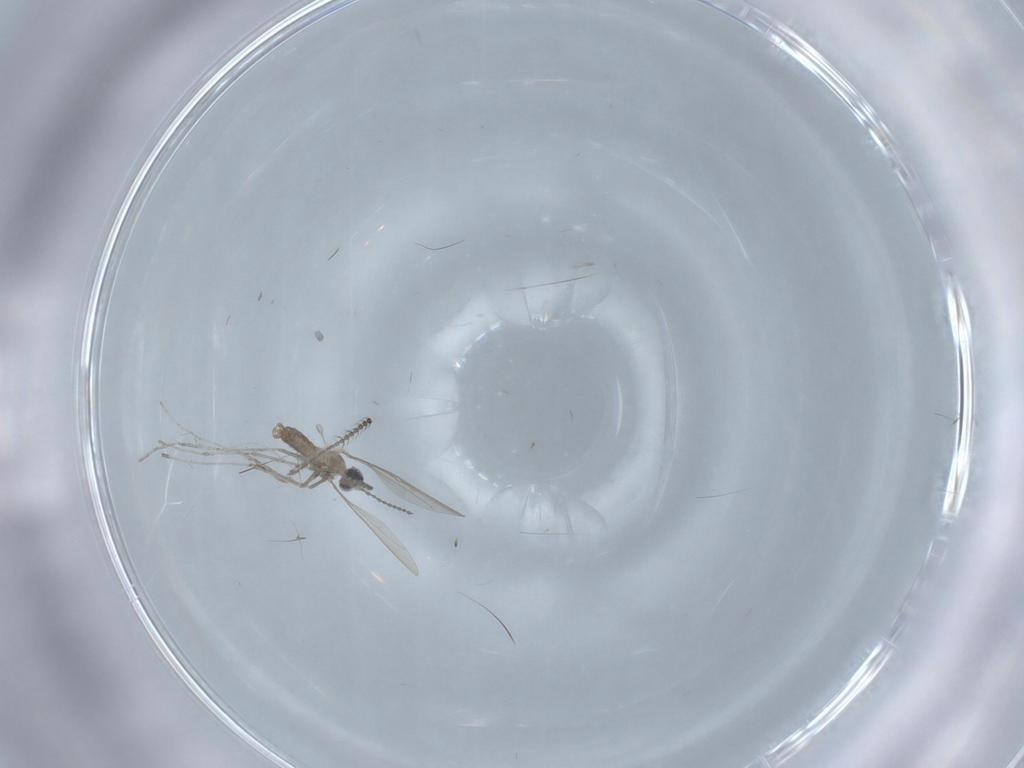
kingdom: Animalia
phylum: Arthropoda
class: Insecta
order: Diptera
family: Cecidomyiidae
